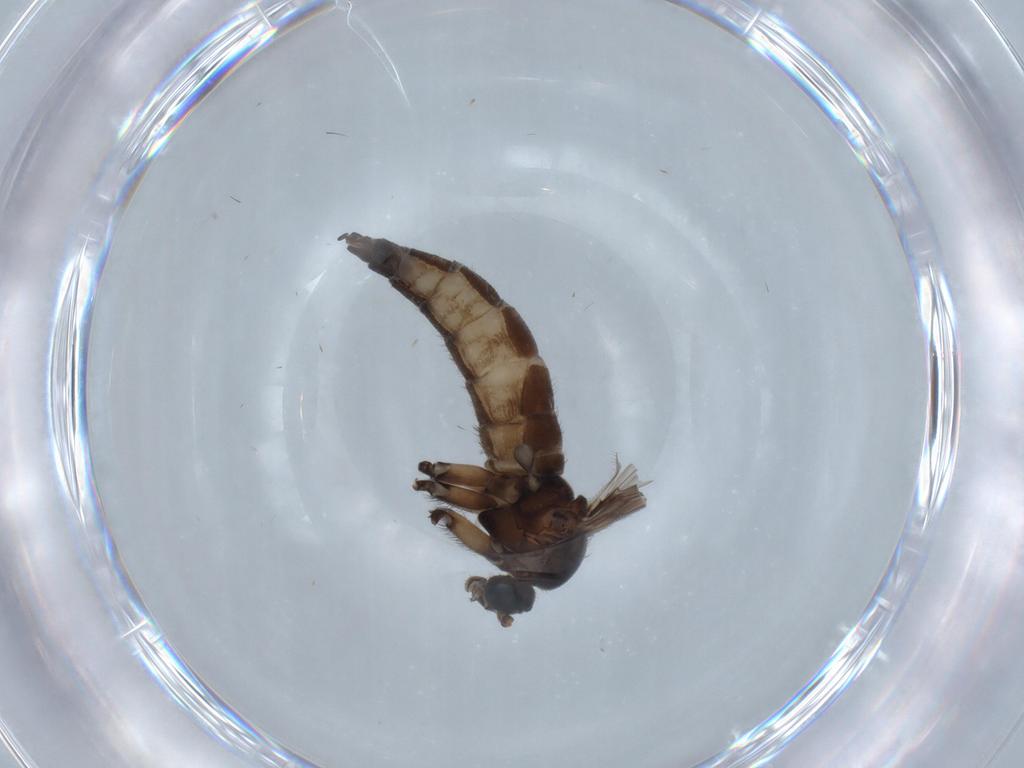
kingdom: Animalia
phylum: Arthropoda
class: Insecta
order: Diptera
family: Sciaridae
